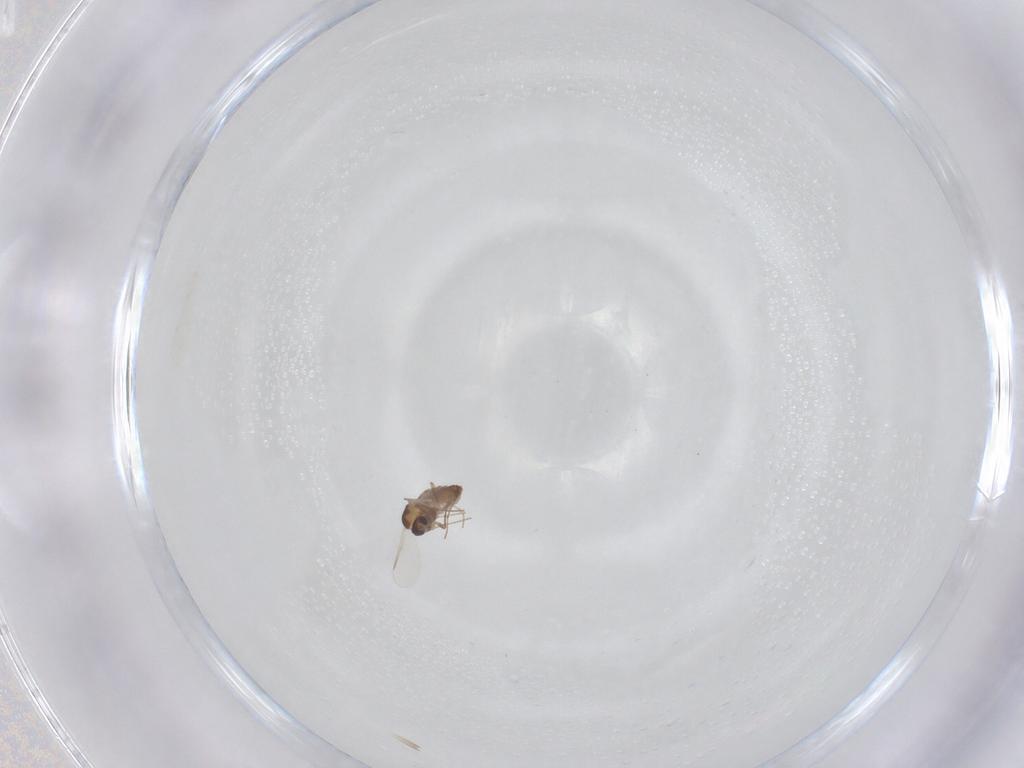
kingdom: Animalia
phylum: Arthropoda
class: Insecta
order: Diptera
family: Chironomidae
